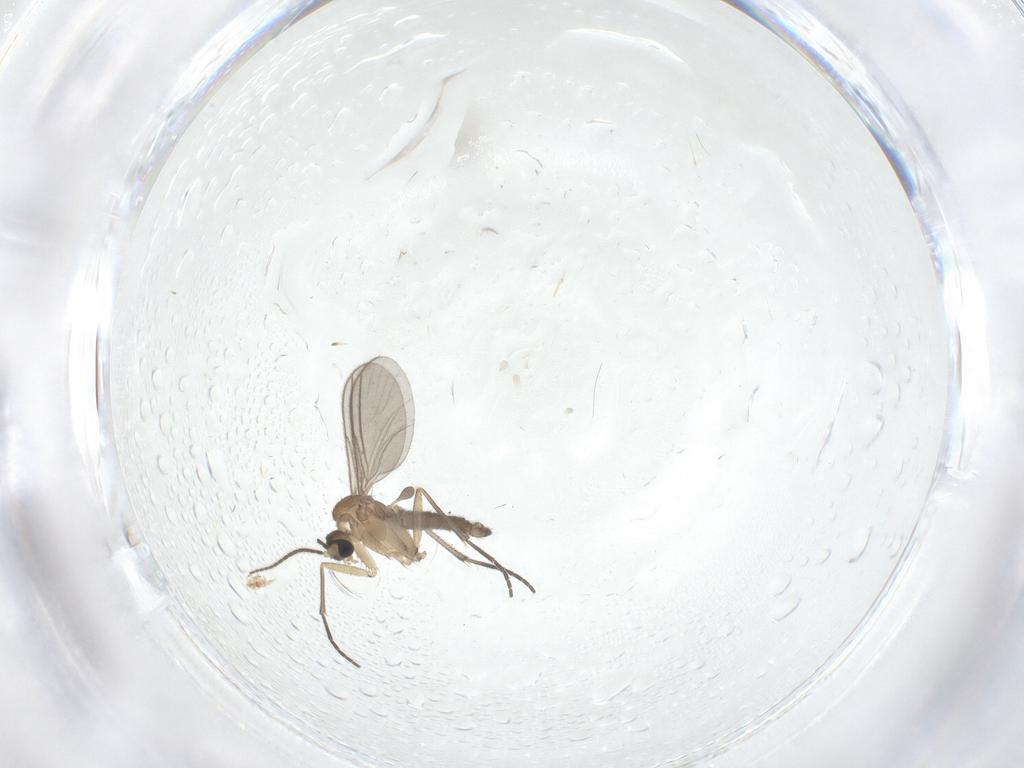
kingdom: Animalia
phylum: Arthropoda
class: Insecta
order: Diptera
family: Sciaridae
